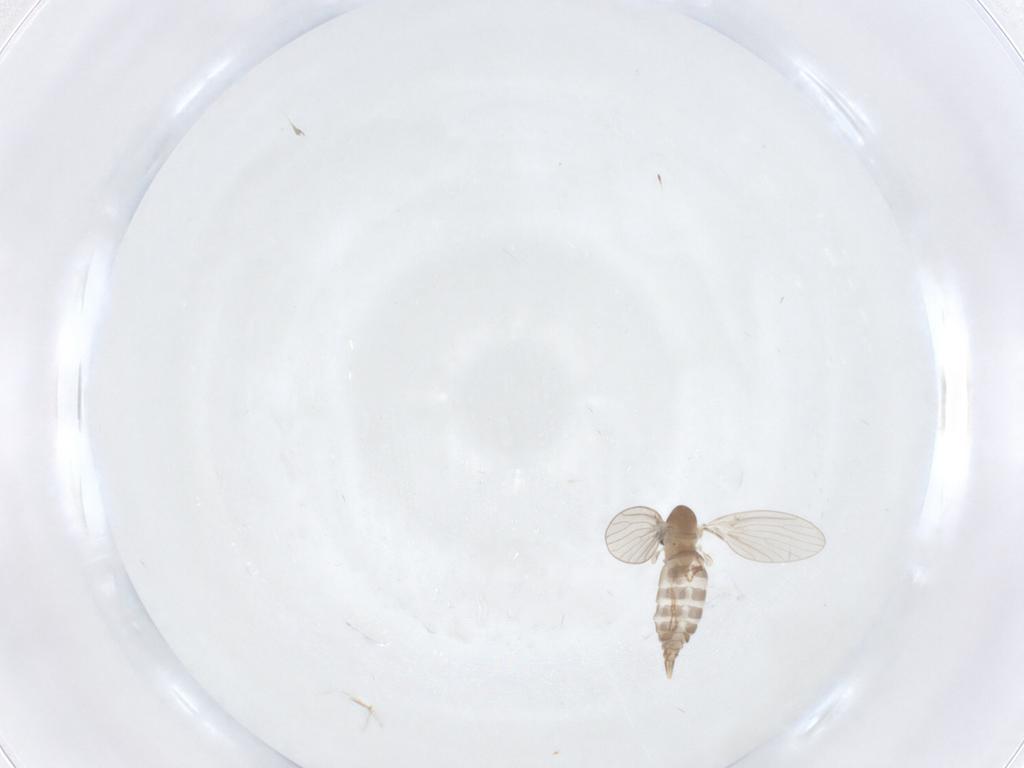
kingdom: Animalia
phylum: Arthropoda
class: Insecta
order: Diptera
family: Psychodidae
